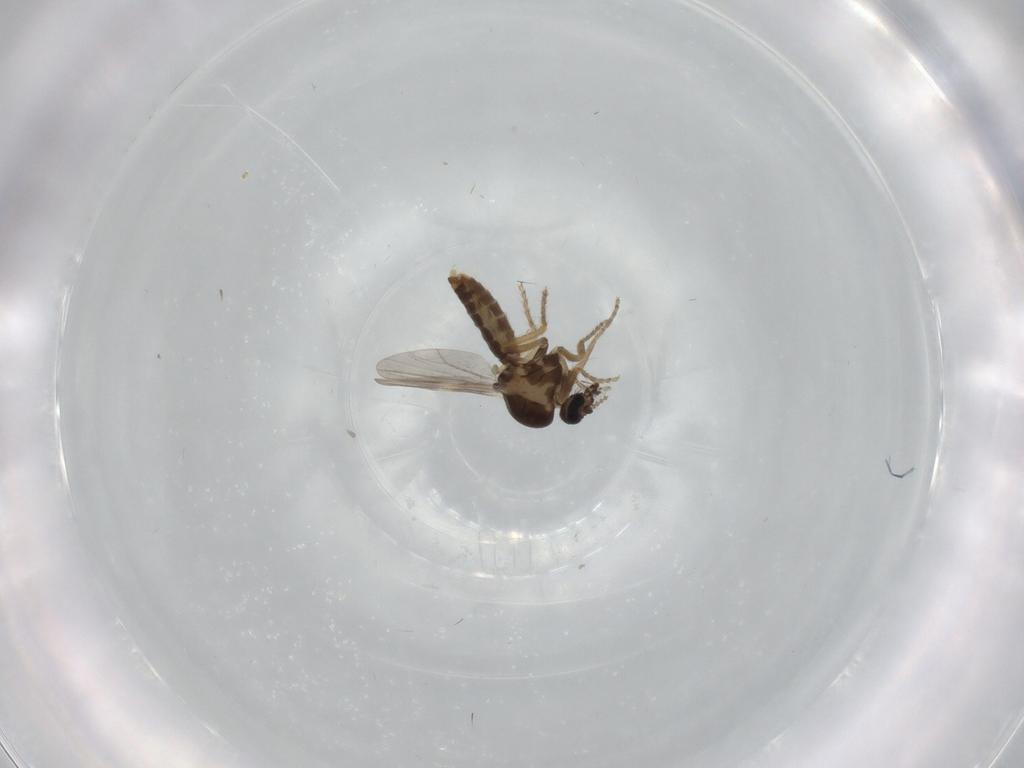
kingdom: Animalia
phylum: Arthropoda
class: Insecta
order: Diptera
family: Ceratopogonidae
